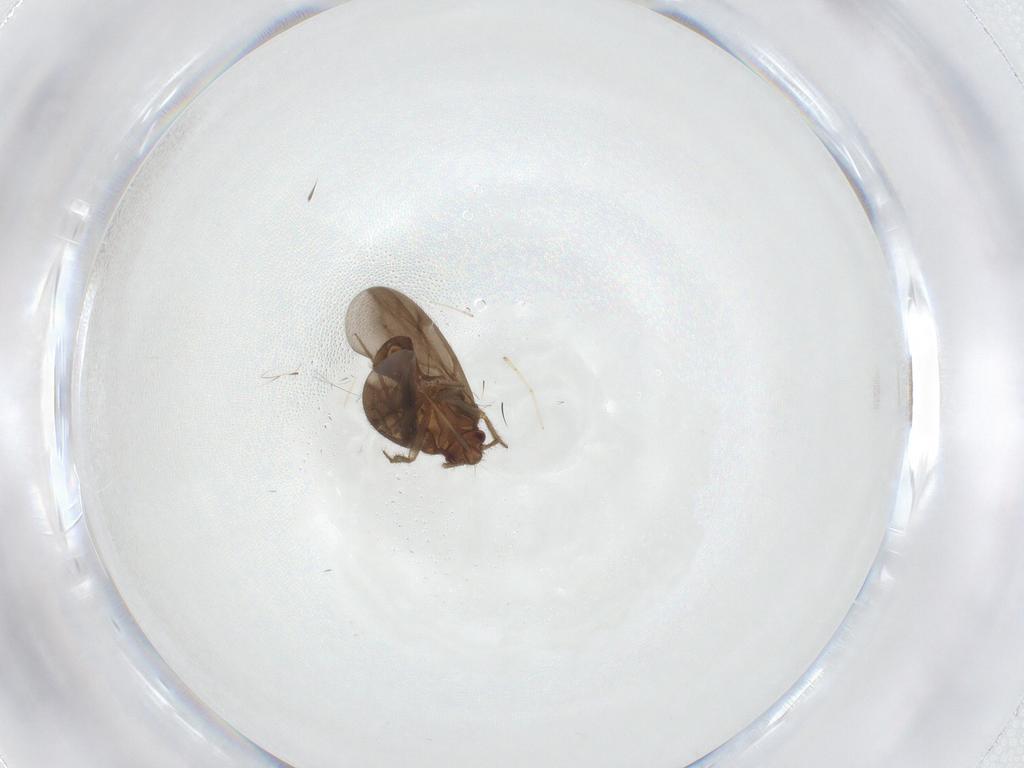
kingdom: Animalia
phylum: Arthropoda
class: Insecta
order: Hemiptera
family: Ceratocombidae
